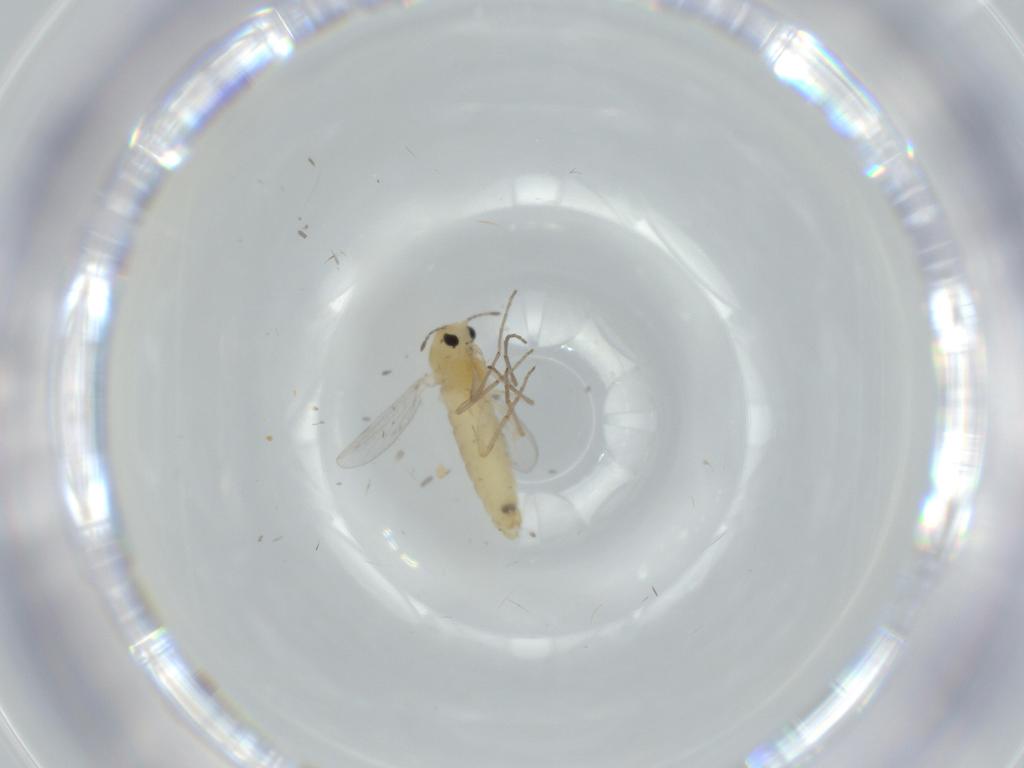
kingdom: Animalia
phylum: Arthropoda
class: Insecta
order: Diptera
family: Chironomidae
